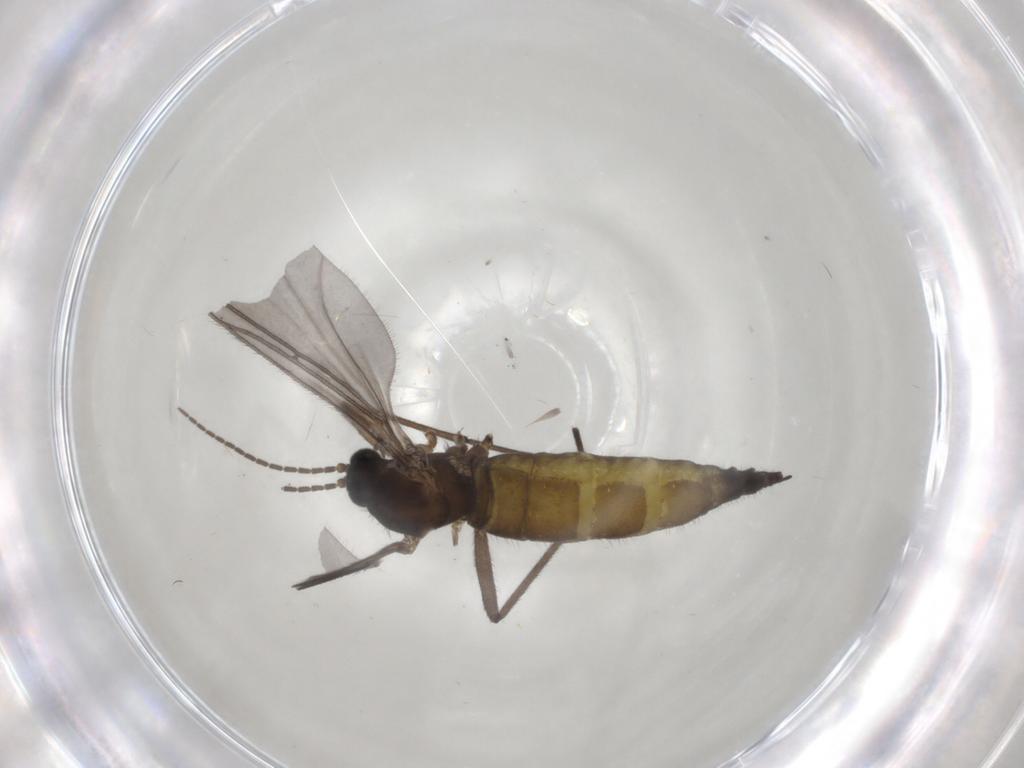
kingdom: Animalia
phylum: Arthropoda
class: Insecta
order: Diptera
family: Sciaridae
